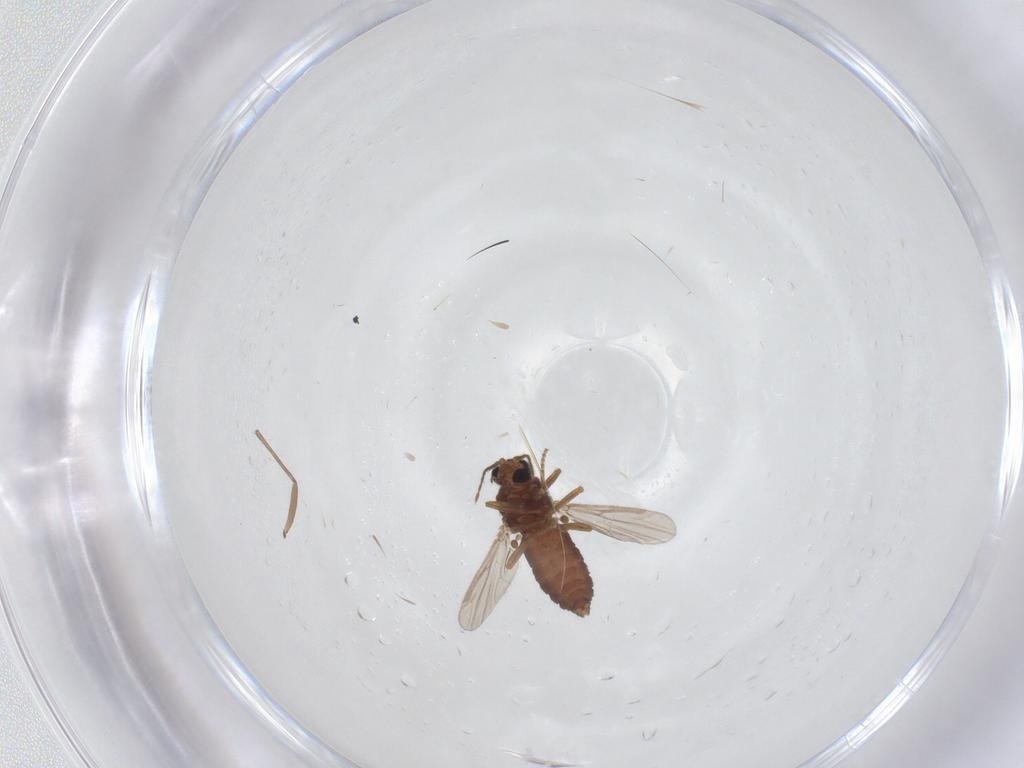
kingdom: Animalia
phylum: Arthropoda
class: Insecta
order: Diptera
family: Ceratopogonidae
